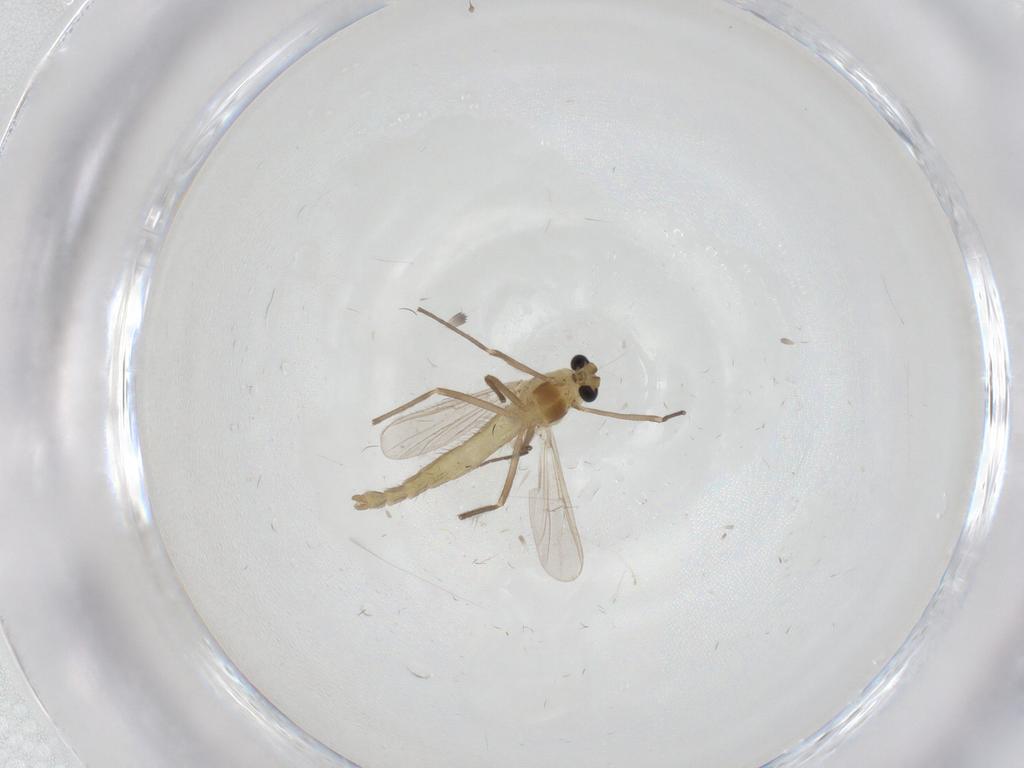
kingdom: Animalia
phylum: Arthropoda
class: Insecta
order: Diptera
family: Chironomidae
